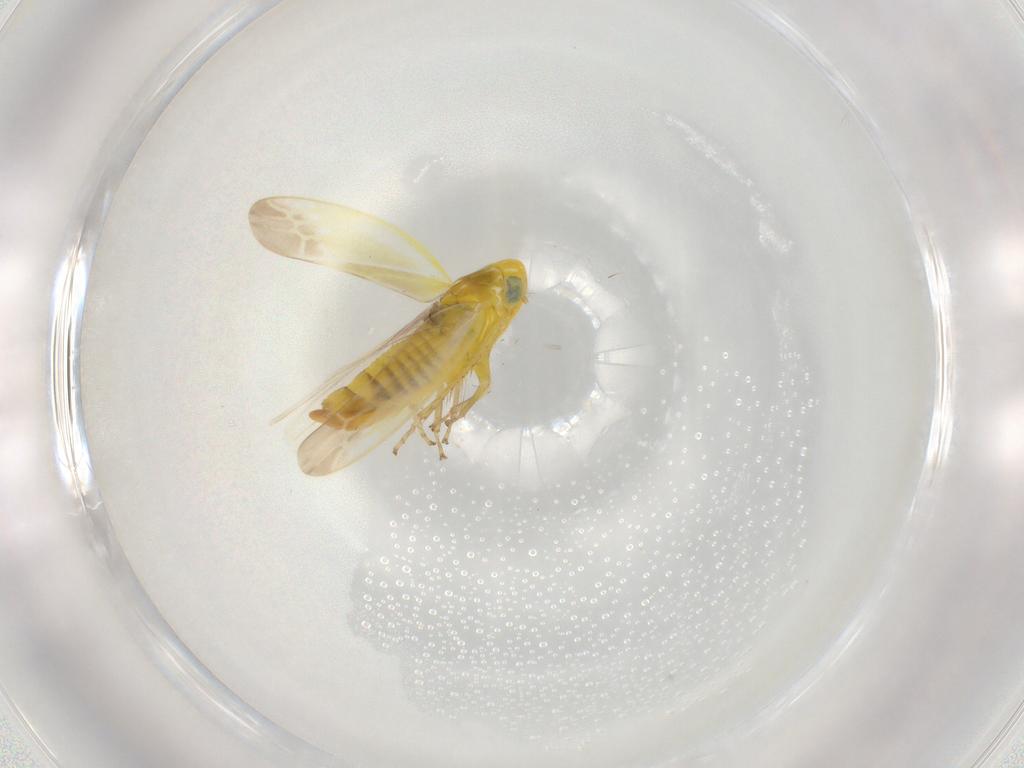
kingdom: Animalia
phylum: Arthropoda
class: Insecta
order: Hemiptera
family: Cicadellidae
